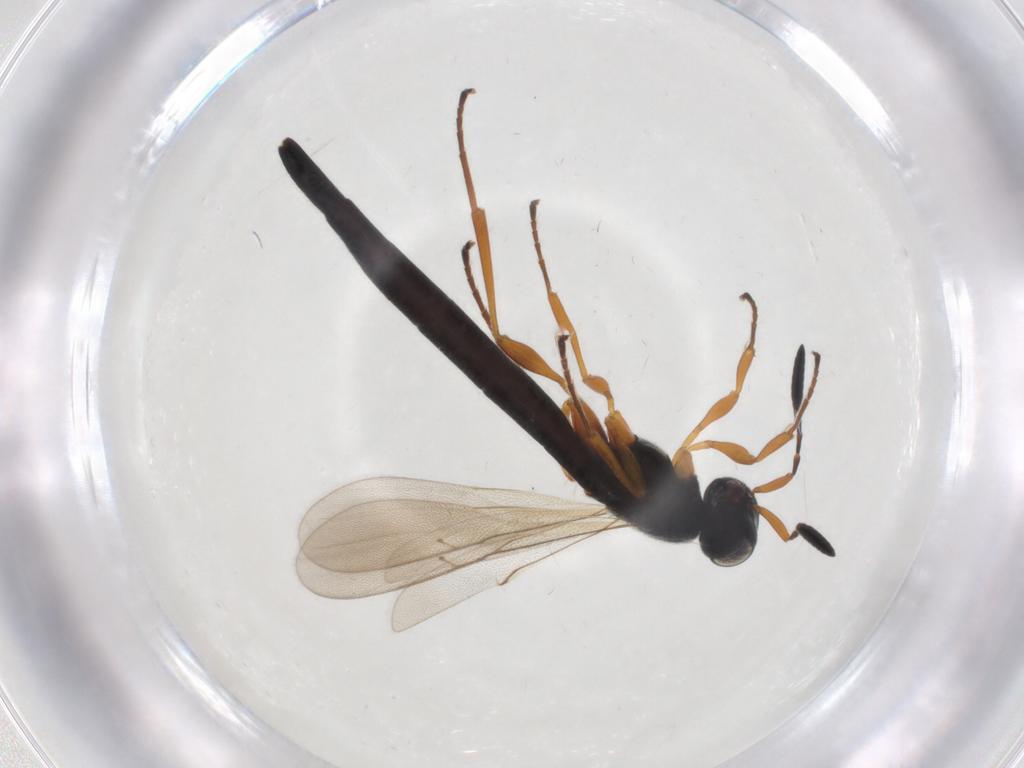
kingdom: Animalia
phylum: Arthropoda
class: Insecta
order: Hymenoptera
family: Scelionidae
